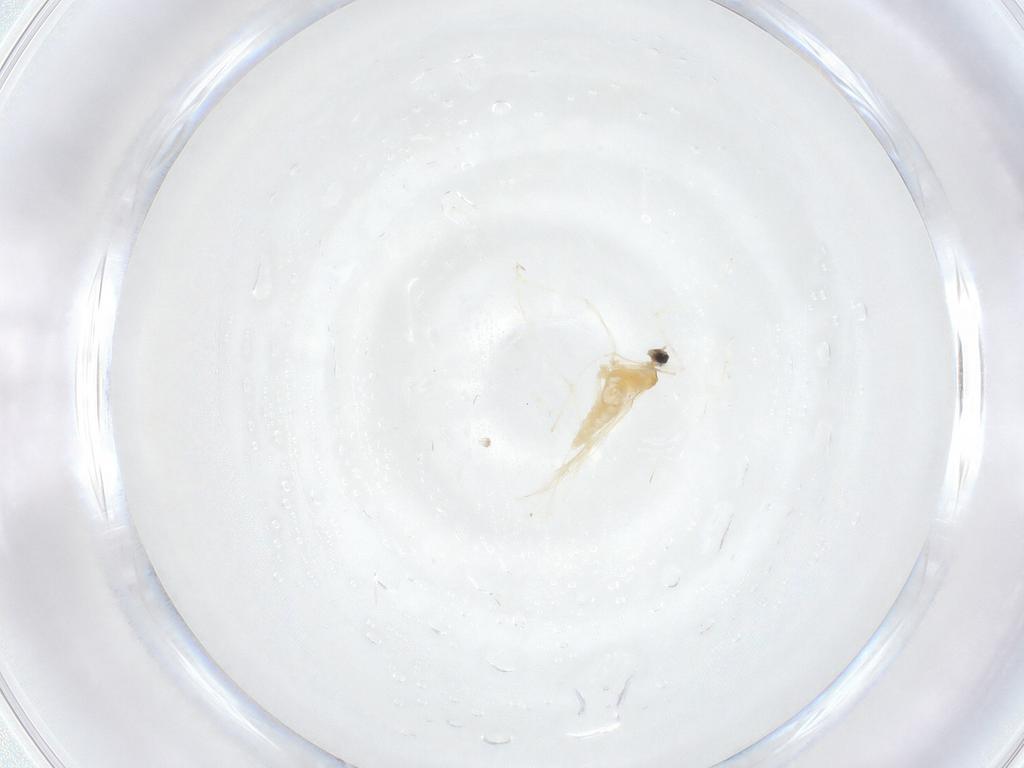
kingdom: Animalia
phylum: Arthropoda
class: Insecta
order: Diptera
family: Cecidomyiidae
